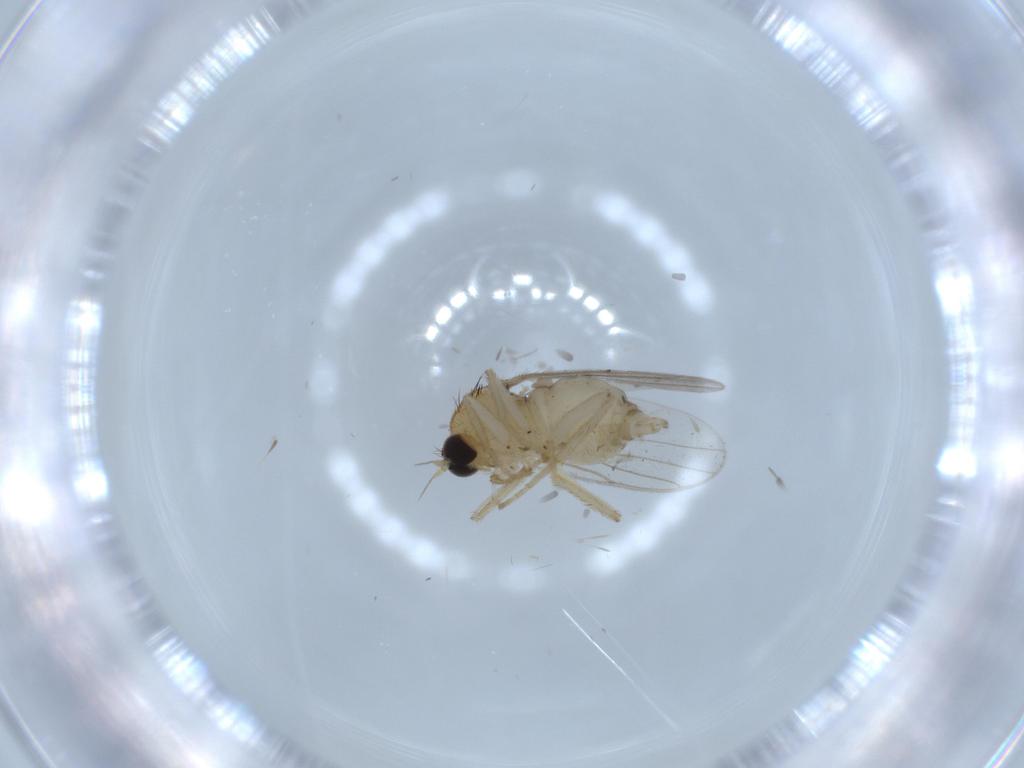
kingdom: Animalia
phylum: Arthropoda
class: Insecta
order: Diptera
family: Hybotidae
